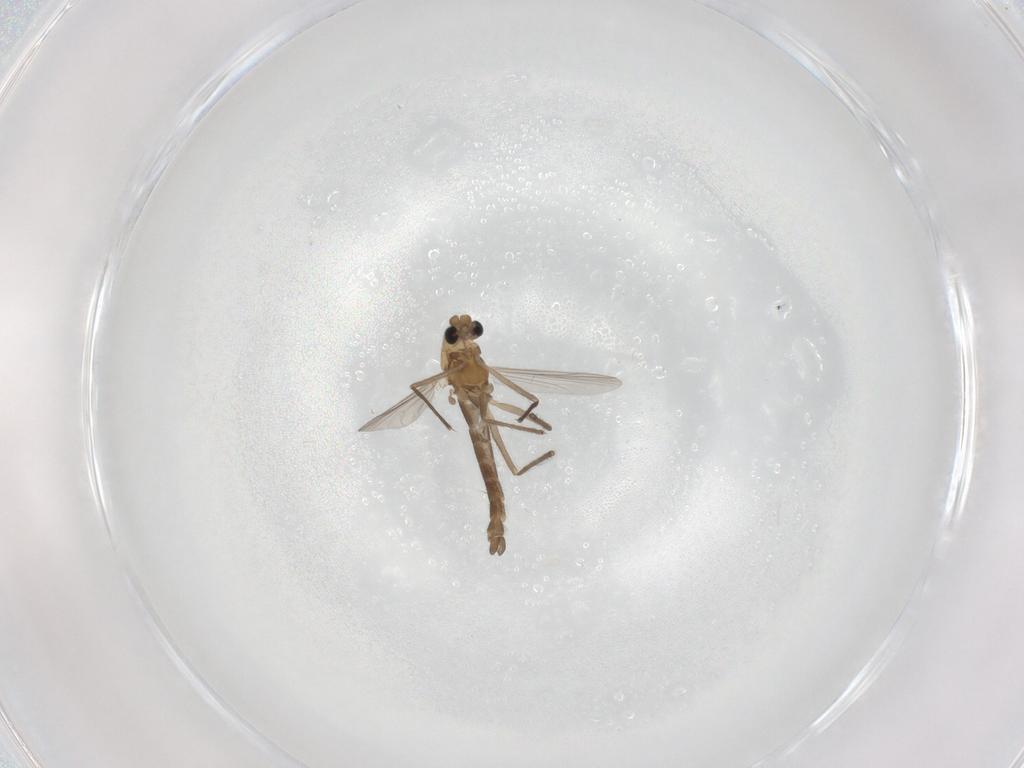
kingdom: Animalia
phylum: Arthropoda
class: Insecta
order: Diptera
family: Chironomidae
